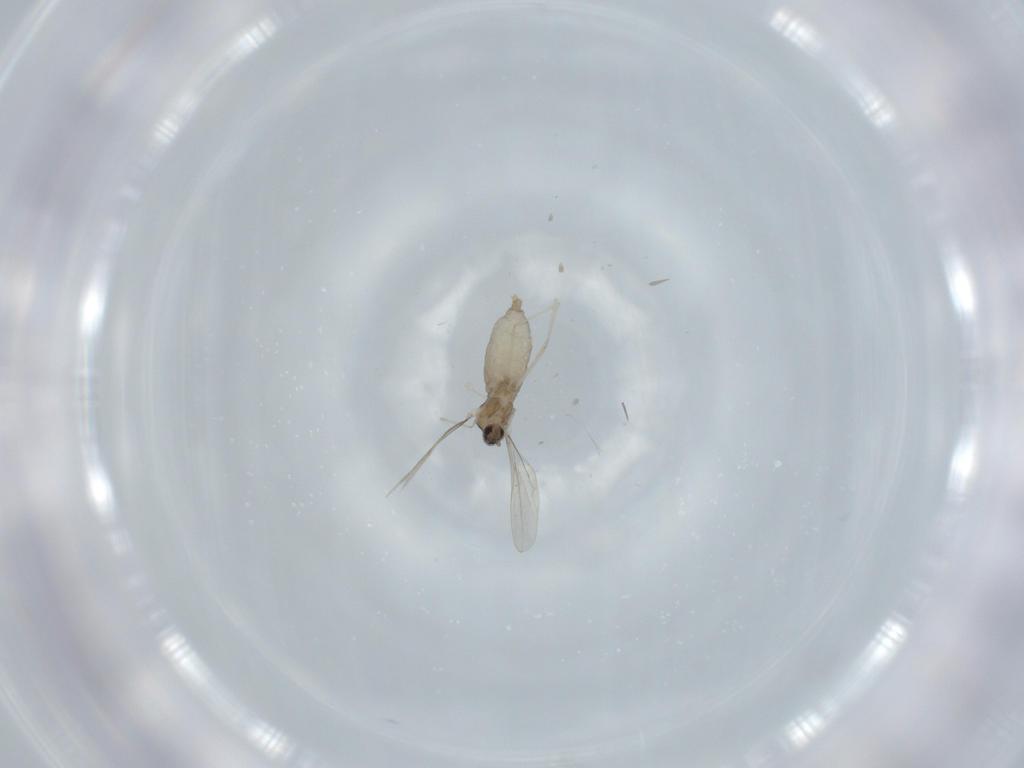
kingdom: Animalia
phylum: Arthropoda
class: Insecta
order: Diptera
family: Cecidomyiidae
